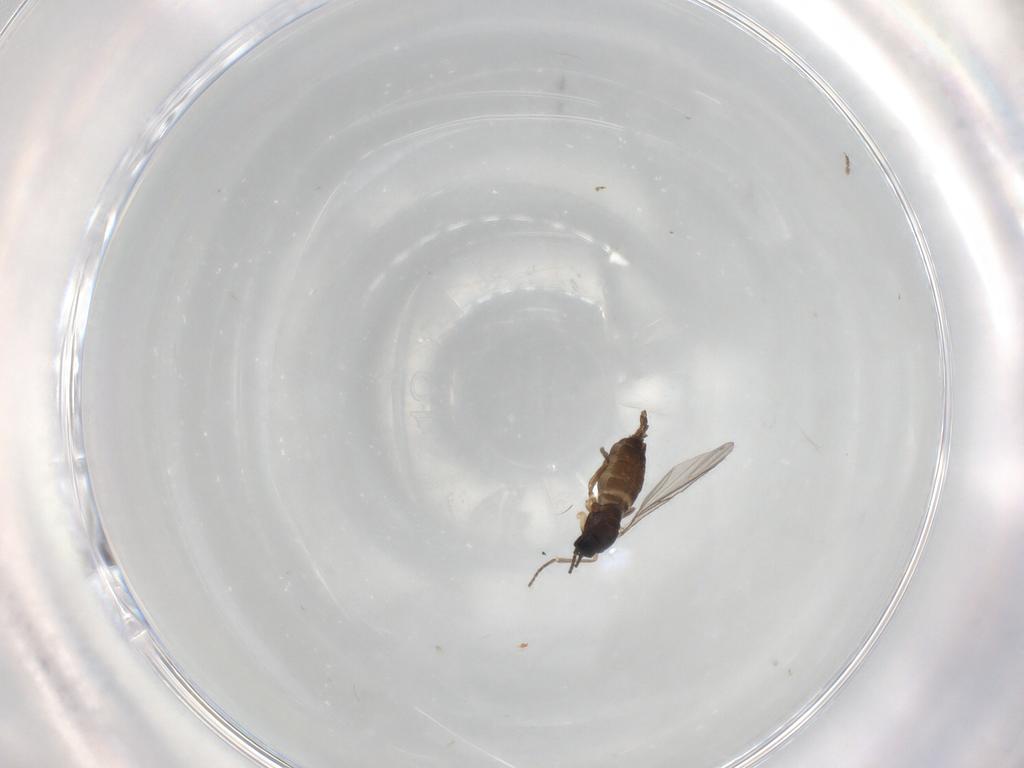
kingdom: Animalia
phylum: Arthropoda
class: Insecta
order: Diptera
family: Sciaridae
